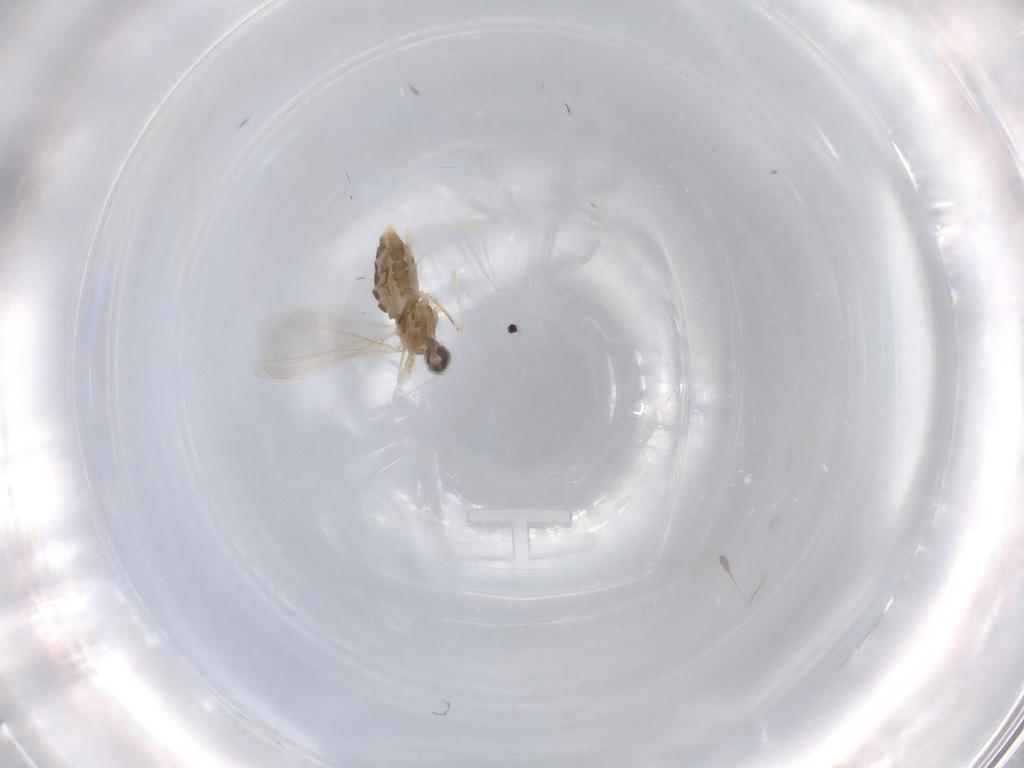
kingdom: Animalia
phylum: Arthropoda
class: Insecta
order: Diptera
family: Cecidomyiidae
